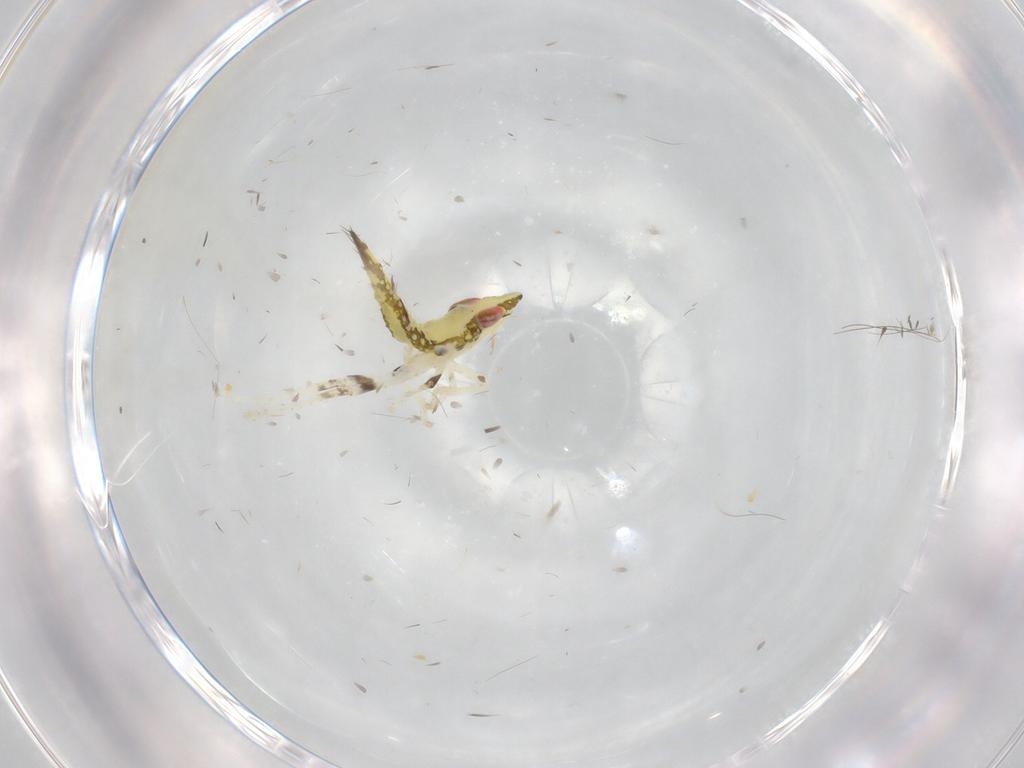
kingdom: Animalia
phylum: Arthropoda
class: Insecta
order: Hemiptera
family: Cicadellidae
